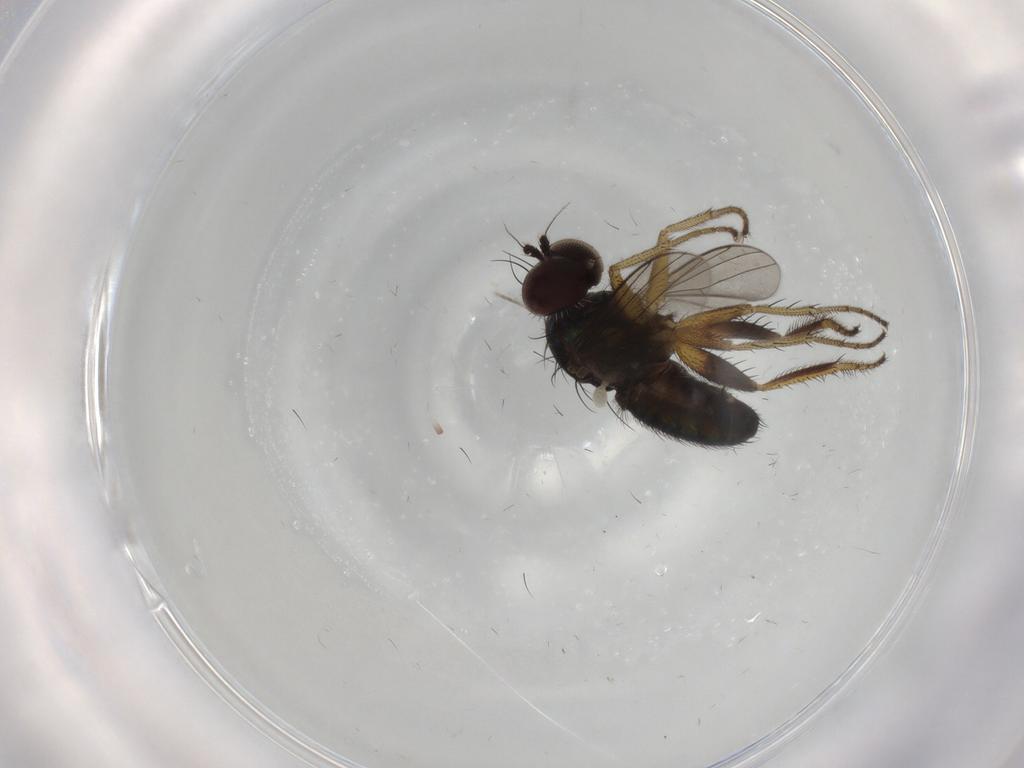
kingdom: Animalia
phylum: Arthropoda
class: Insecta
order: Diptera
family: Dolichopodidae
